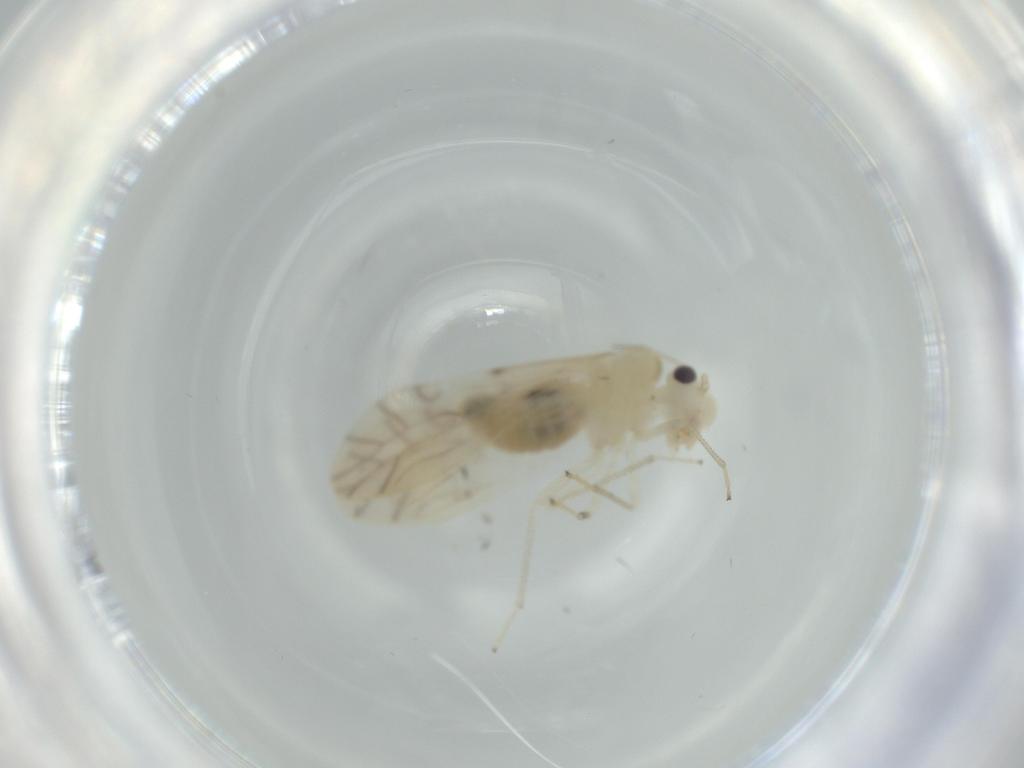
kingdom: Animalia
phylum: Arthropoda
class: Insecta
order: Psocodea
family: Caeciliusidae
